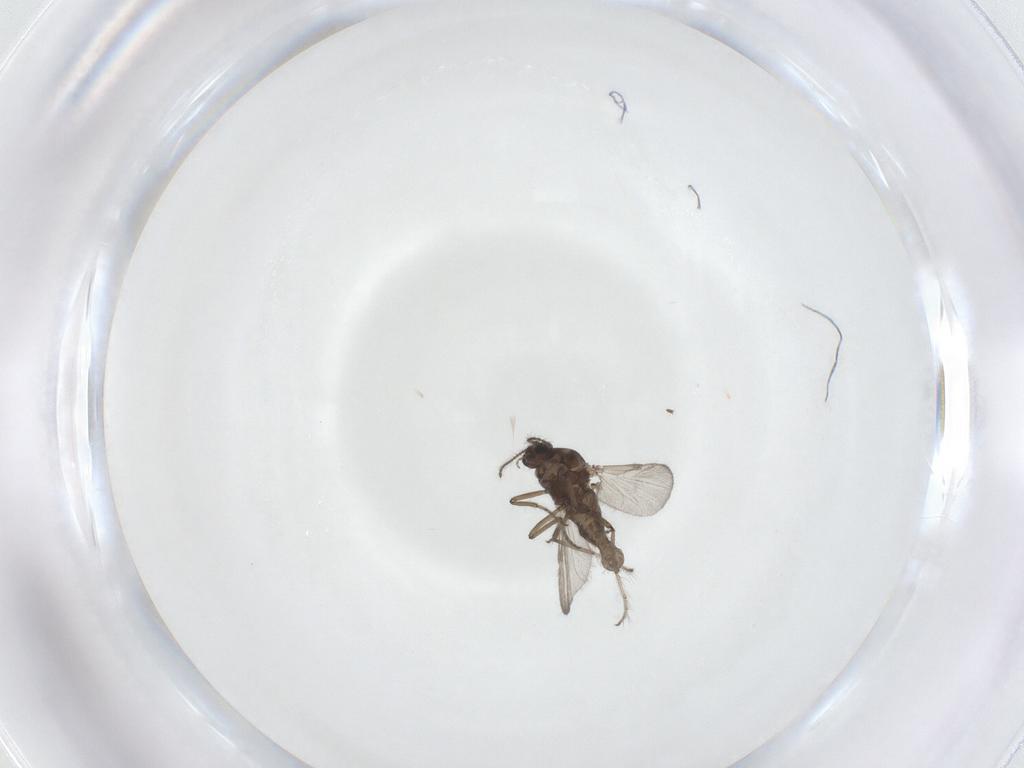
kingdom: Animalia
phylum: Arthropoda
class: Insecta
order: Diptera
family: Ceratopogonidae
